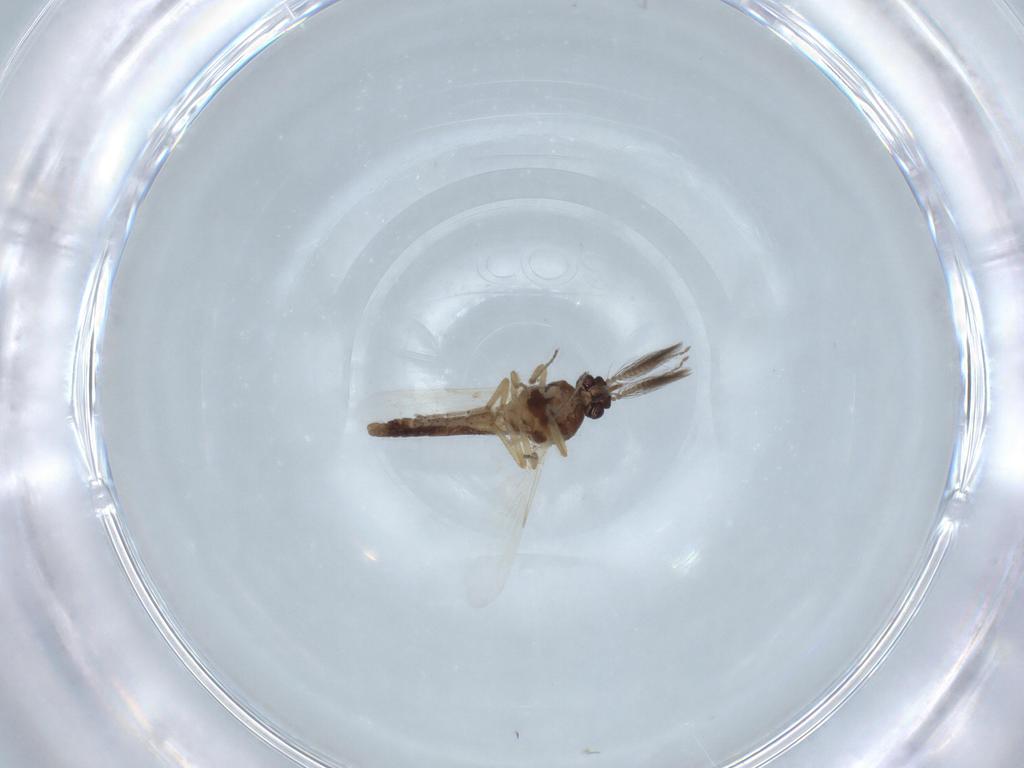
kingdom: Animalia
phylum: Arthropoda
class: Insecta
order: Diptera
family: Ceratopogonidae
